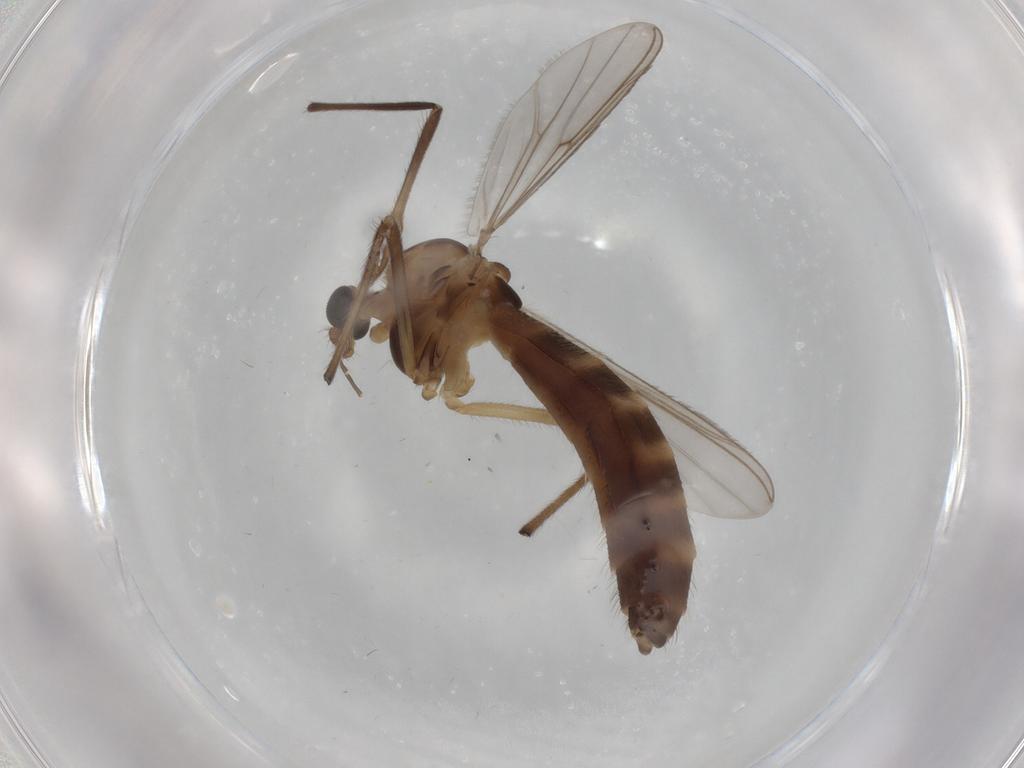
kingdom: Animalia
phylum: Arthropoda
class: Insecta
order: Diptera
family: Chironomidae
